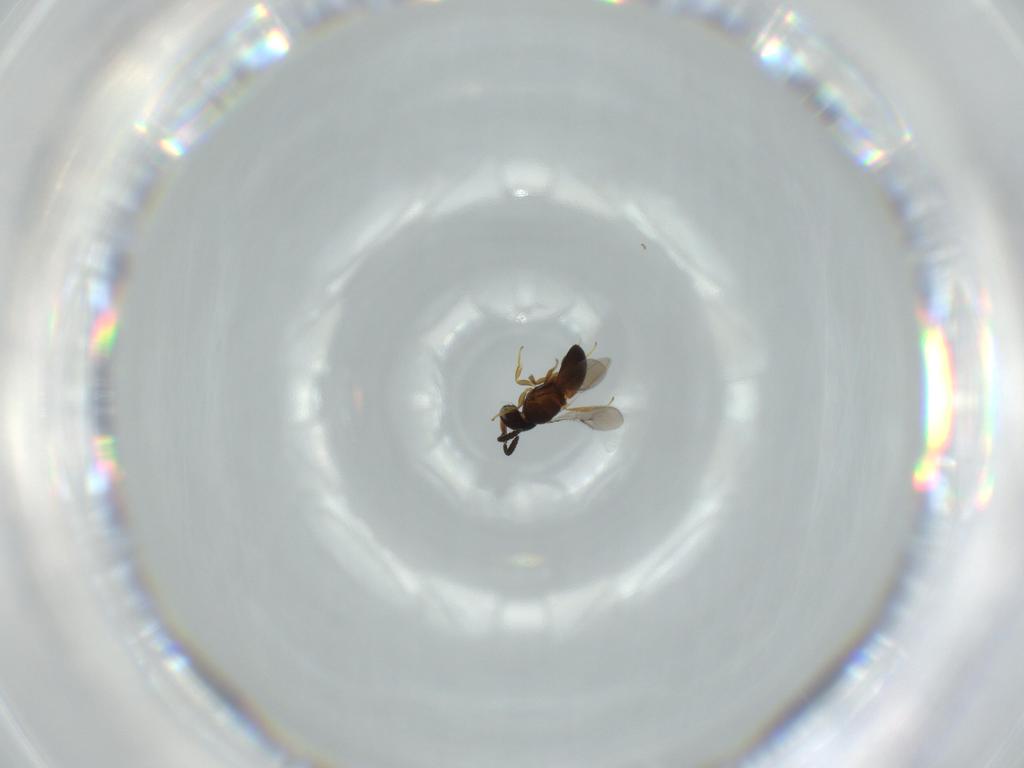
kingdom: Animalia
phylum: Arthropoda
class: Insecta
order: Hymenoptera
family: Scelionidae
